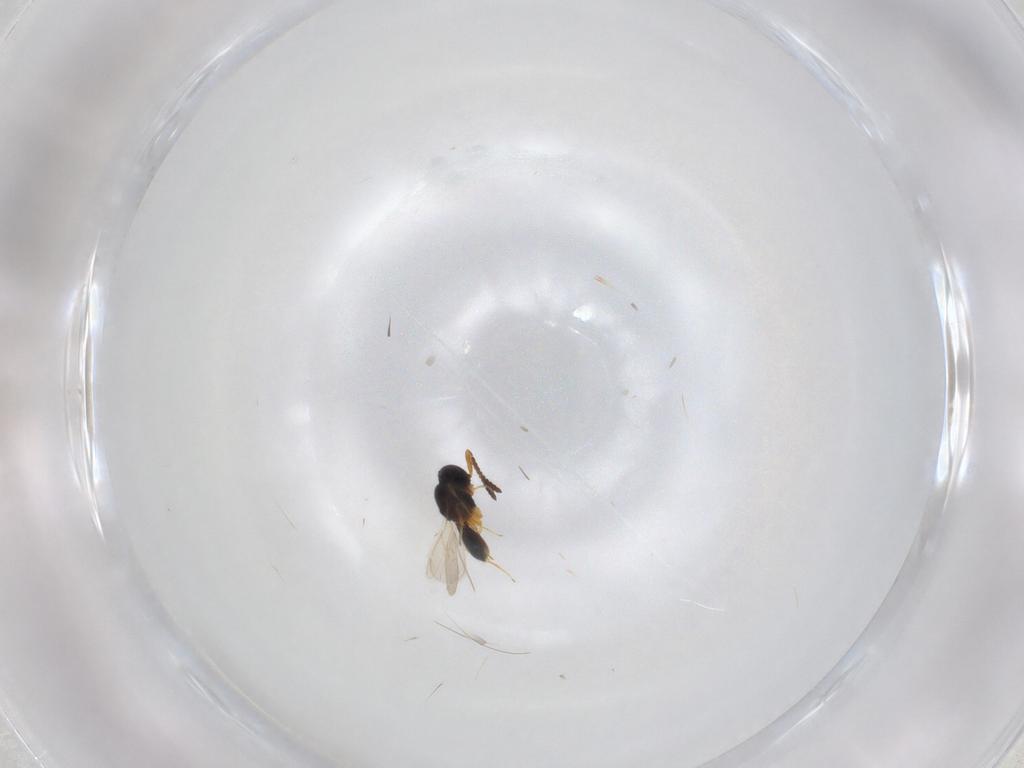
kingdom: Animalia
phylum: Arthropoda
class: Insecta
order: Hymenoptera
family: Scelionidae
